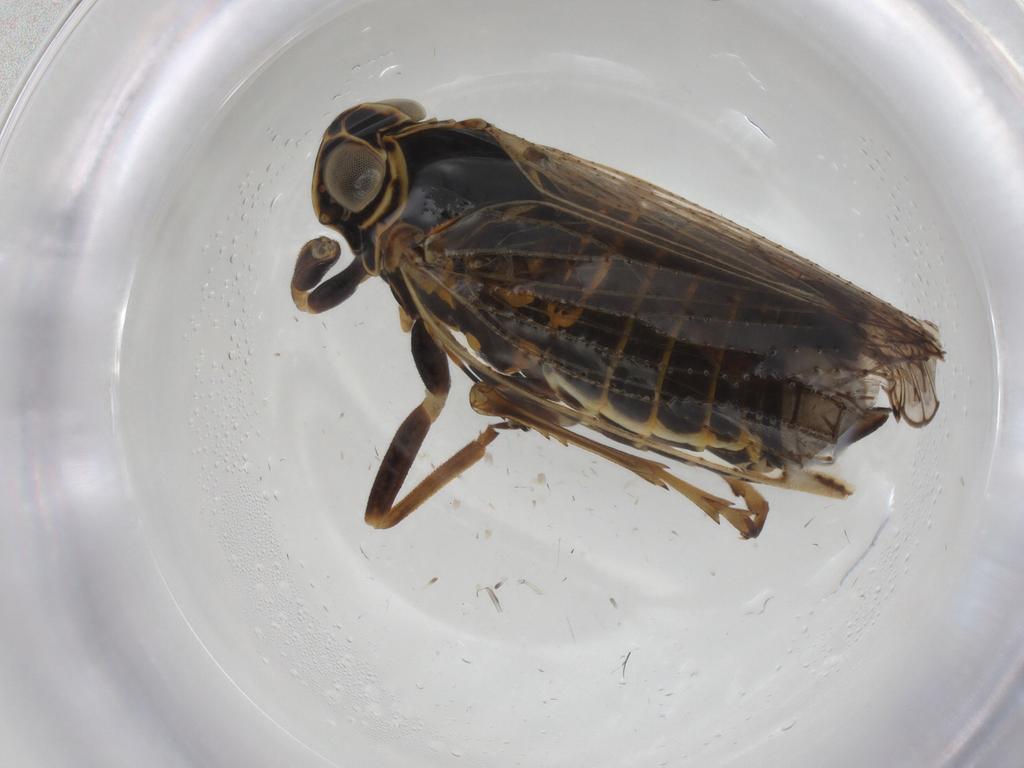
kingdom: Animalia
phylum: Arthropoda
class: Insecta
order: Hemiptera
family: Cixiidae
